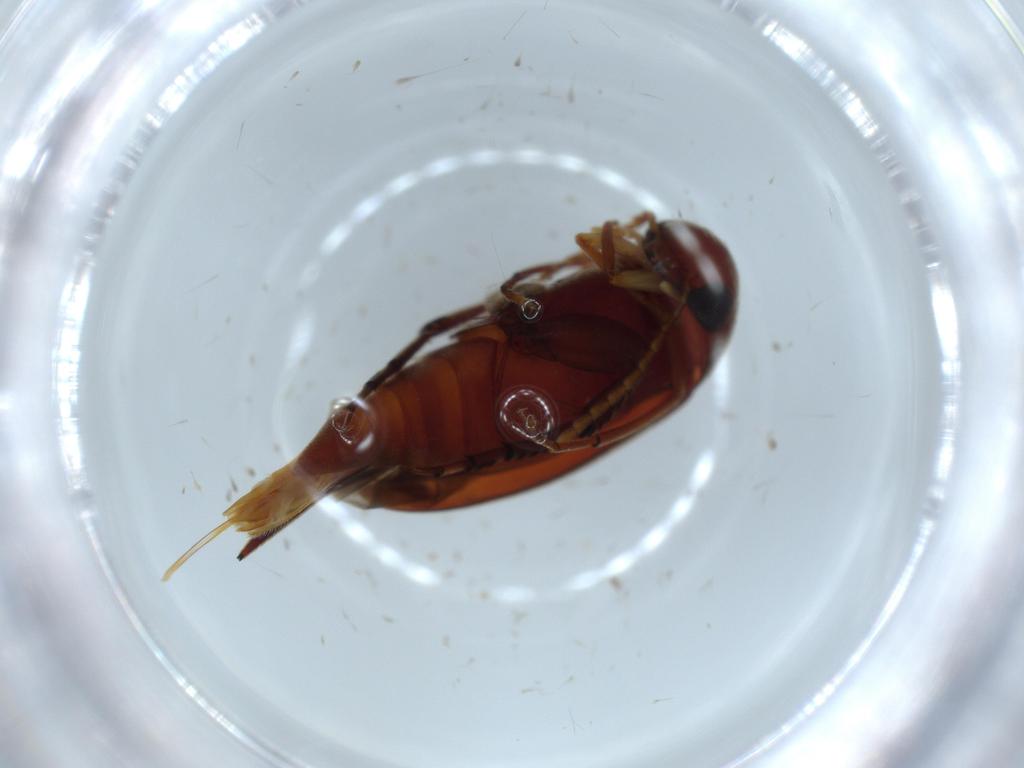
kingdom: Animalia
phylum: Arthropoda
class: Insecta
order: Coleoptera
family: Mordellidae
